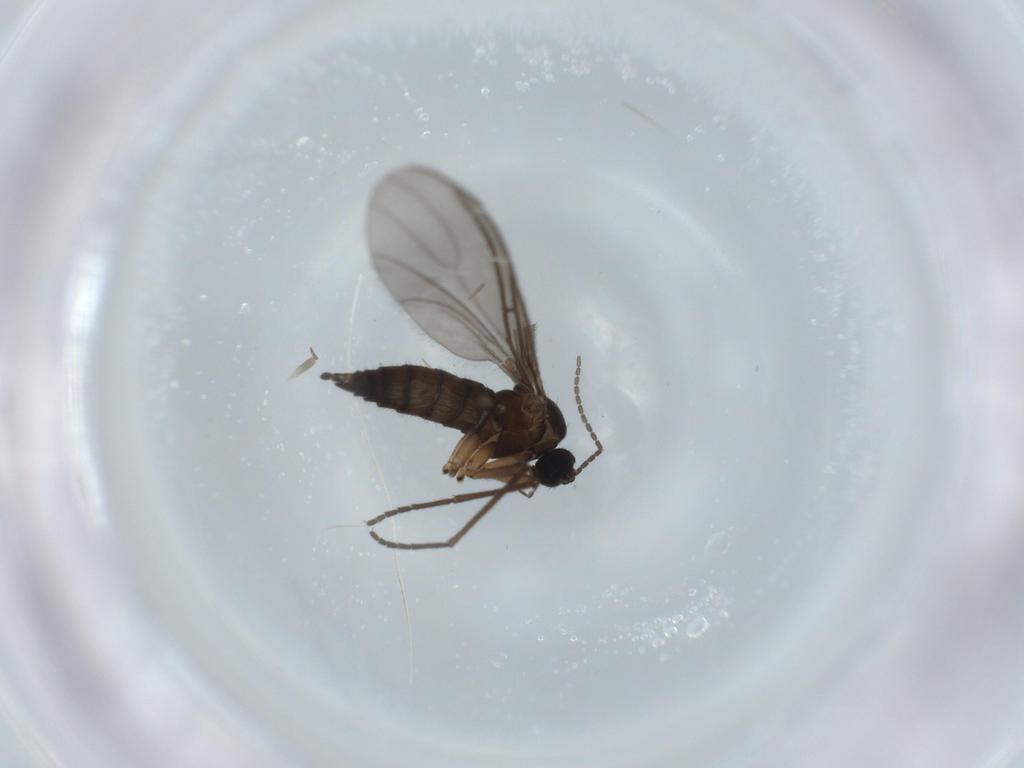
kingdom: Animalia
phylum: Arthropoda
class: Insecta
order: Diptera
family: Sciaridae
